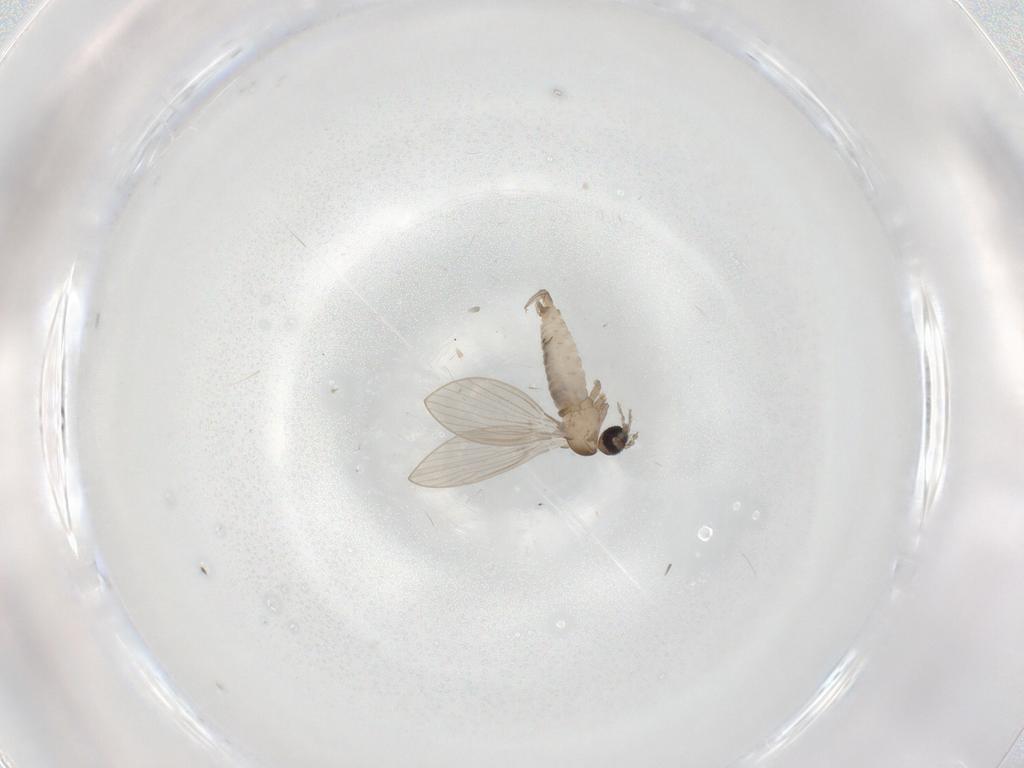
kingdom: Animalia
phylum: Arthropoda
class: Insecta
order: Diptera
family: Psychodidae
